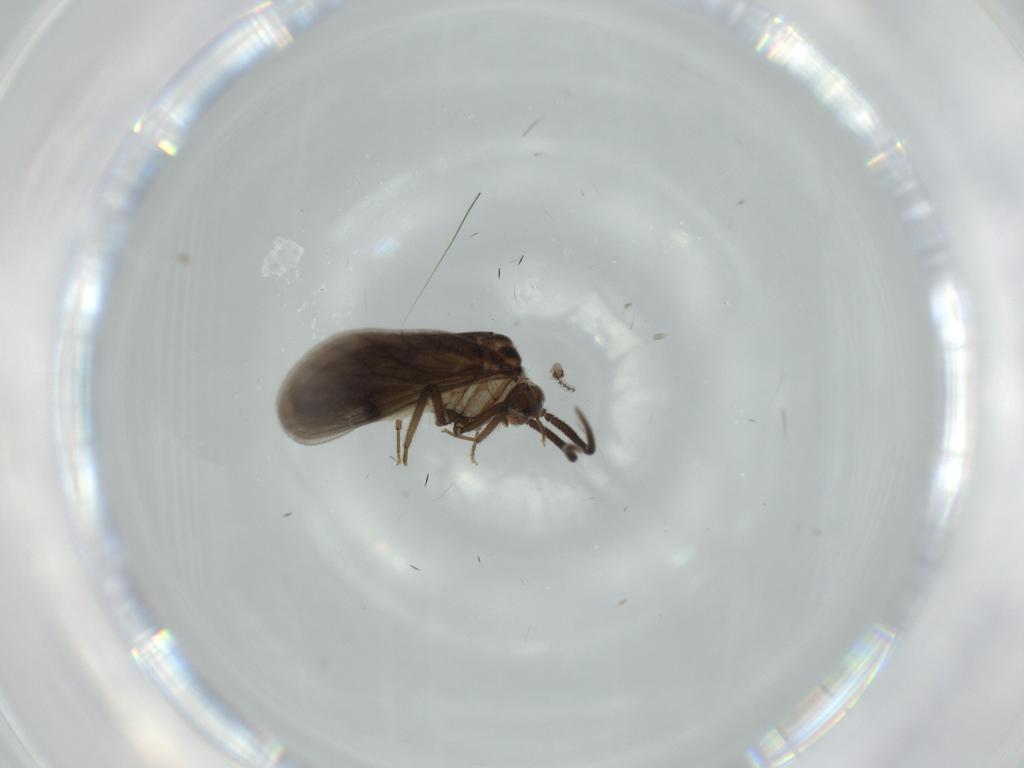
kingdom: Animalia
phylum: Arthropoda
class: Insecta
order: Neuroptera
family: Coniopterygidae
